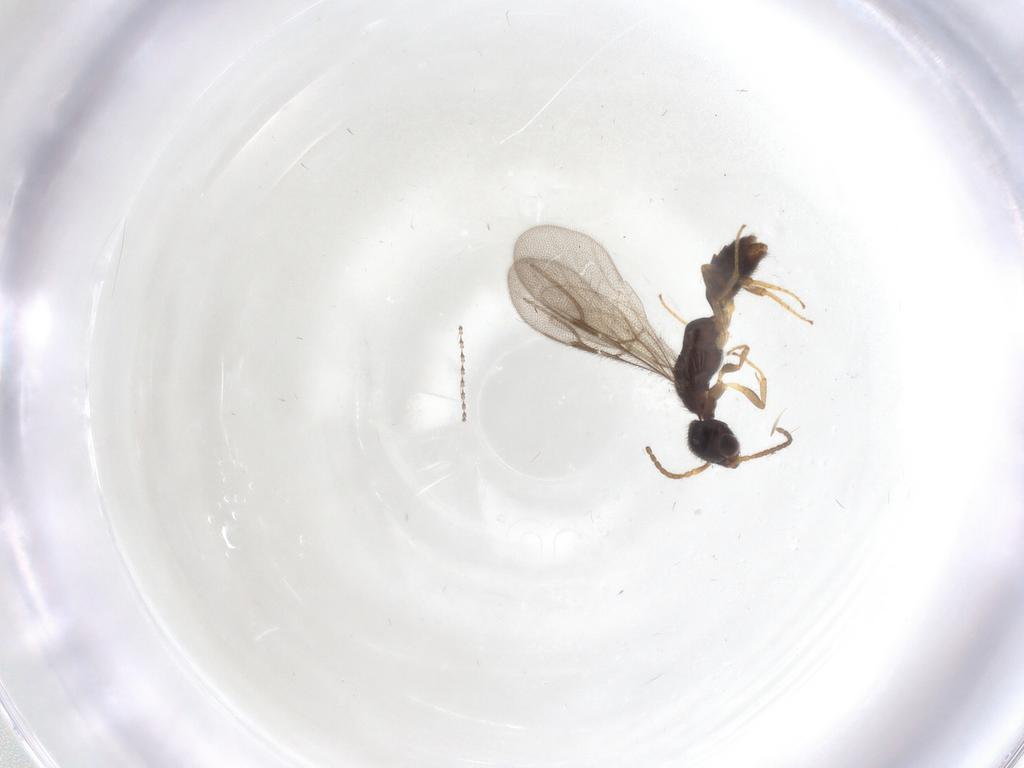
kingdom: Animalia
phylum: Arthropoda
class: Insecta
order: Hymenoptera
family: Bethylidae
